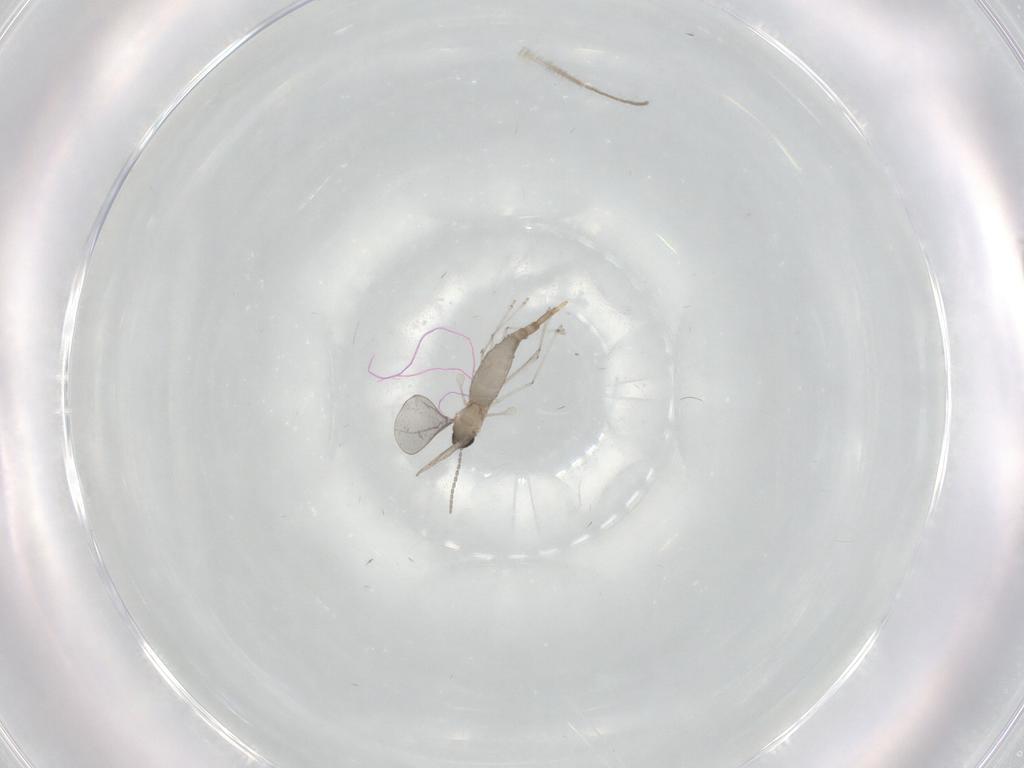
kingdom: Animalia
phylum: Arthropoda
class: Insecta
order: Diptera
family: Cecidomyiidae
